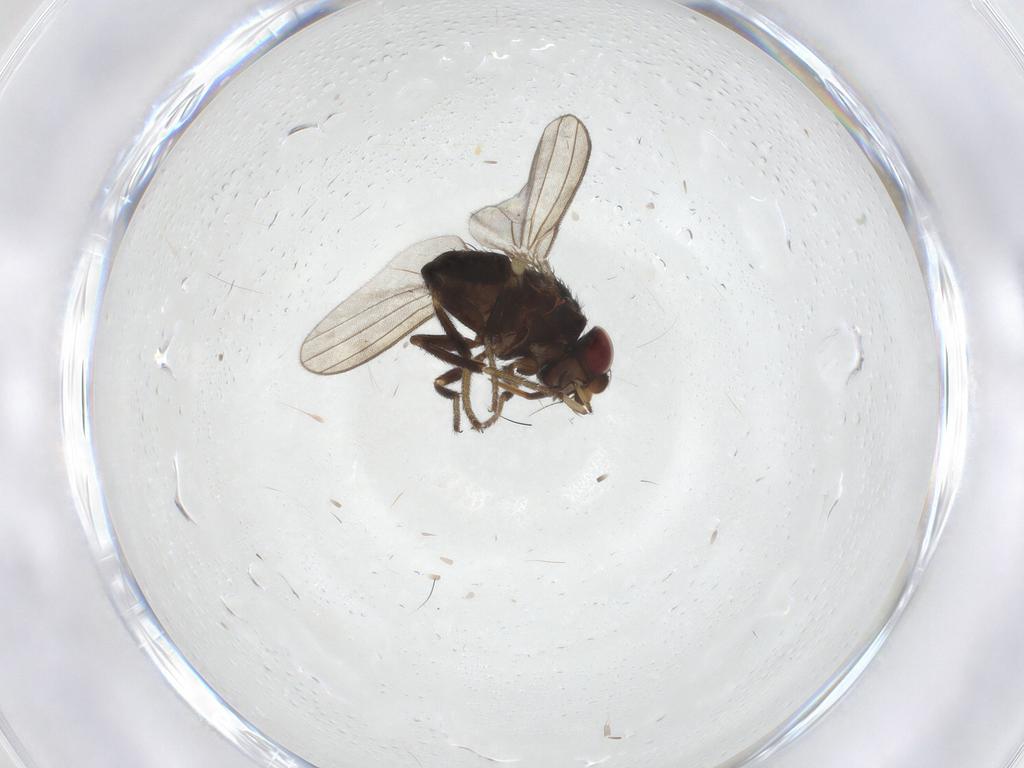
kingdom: Animalia
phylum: Arthropoda
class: Insecta
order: Diptera
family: Milichiidae
